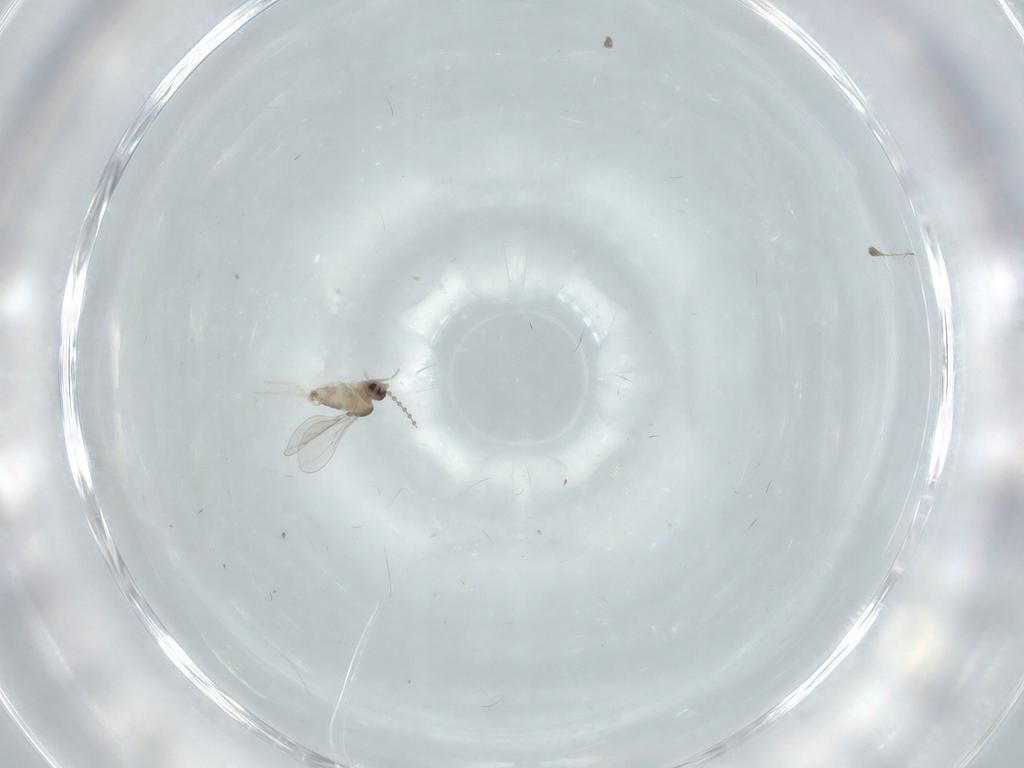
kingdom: Animalia
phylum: Arthropoda
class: Insecta
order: Diptera
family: Cecidomyiidae
